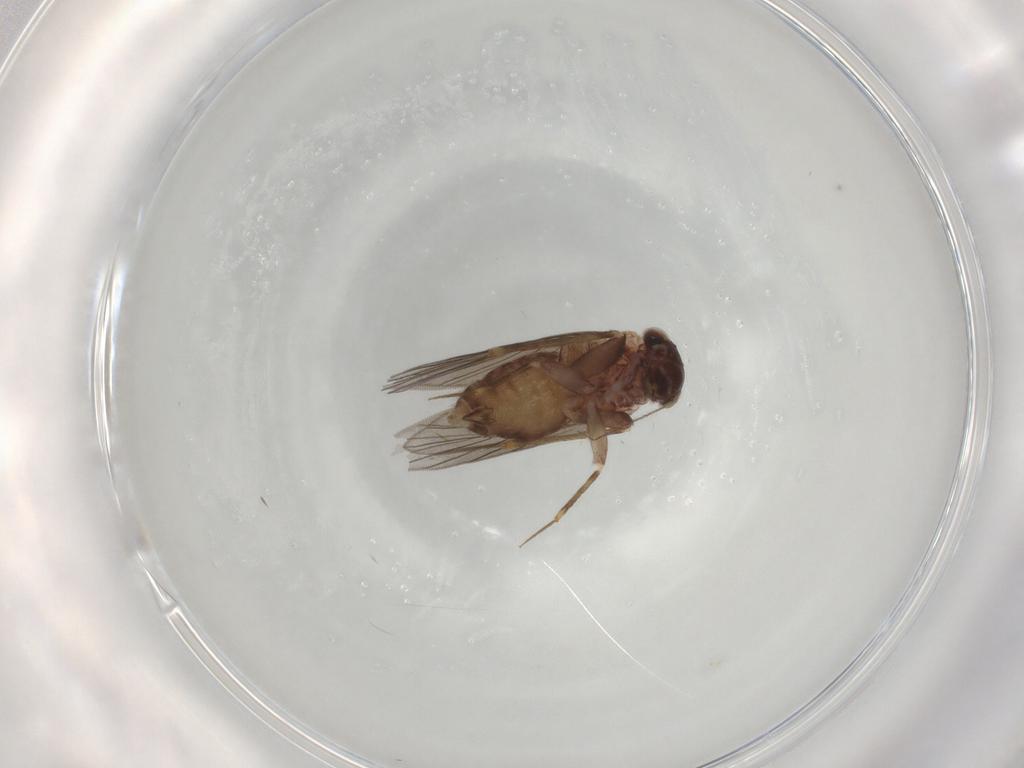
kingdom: Animalia
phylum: Arthropoda
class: Insecta
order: Psocodea
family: Lepidopsocidae
